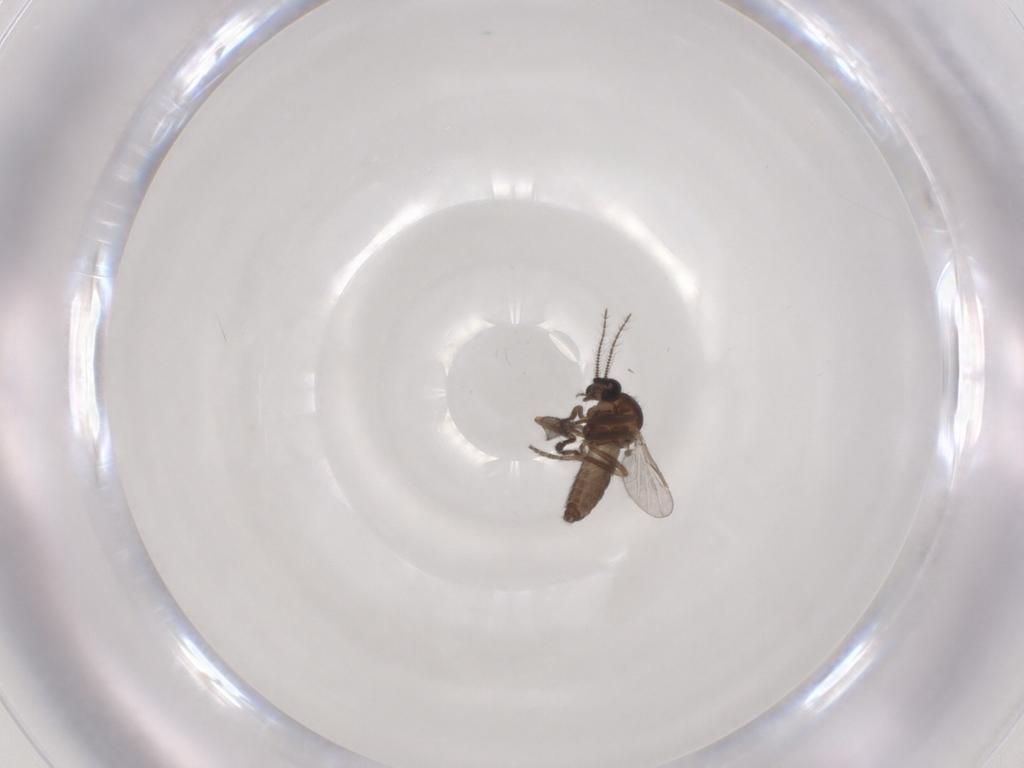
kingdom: Animalia
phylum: Arthropoda
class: Insecta
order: Diptera
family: Ceratopogonidae
